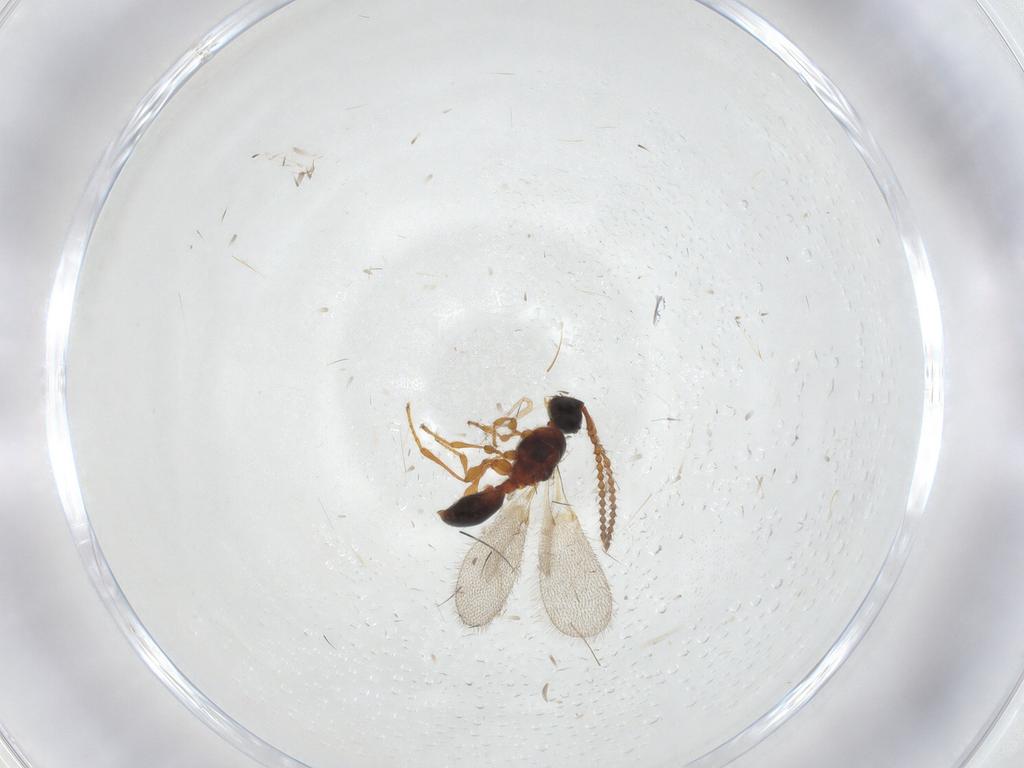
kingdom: Animalia
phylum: Arthropoda
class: Insecta
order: Hymenoptera
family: Diapriidae
